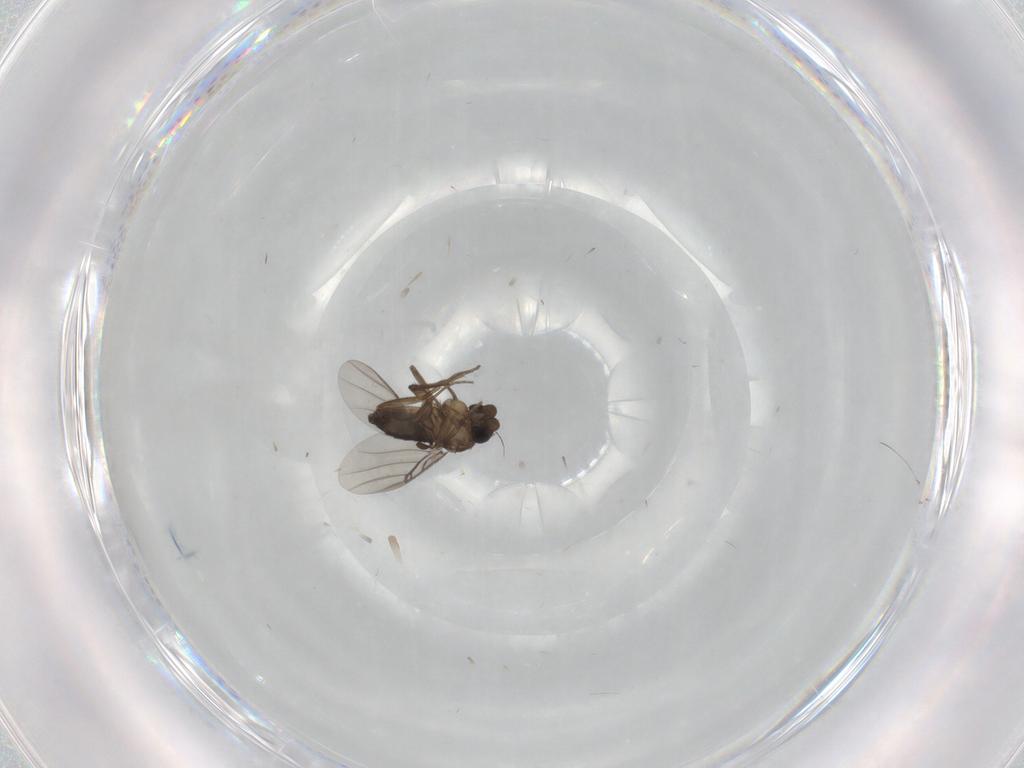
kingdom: Animalia
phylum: Arthropoda
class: Insecta
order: Diptera
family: Phoridae
